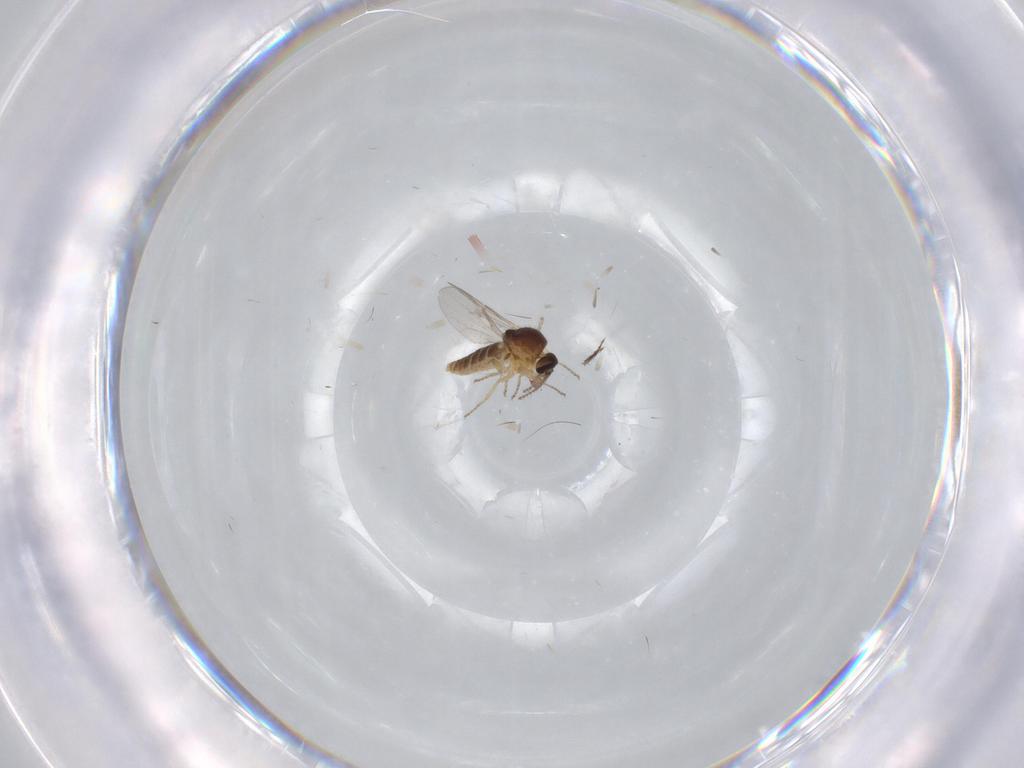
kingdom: Animalia
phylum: Arthropoda
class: Insecta
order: Diptera
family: Ceratopogonidae
